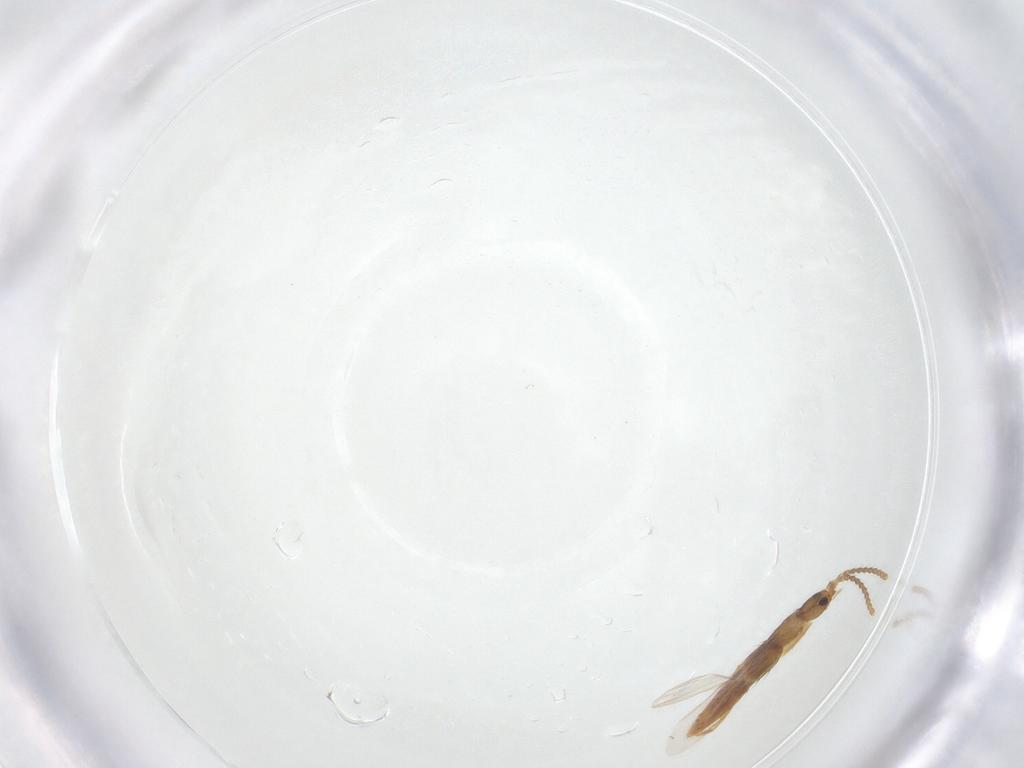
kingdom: Animalia
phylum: Arthropoda
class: Insecta
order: Coleoptera
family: Staphylinidae
